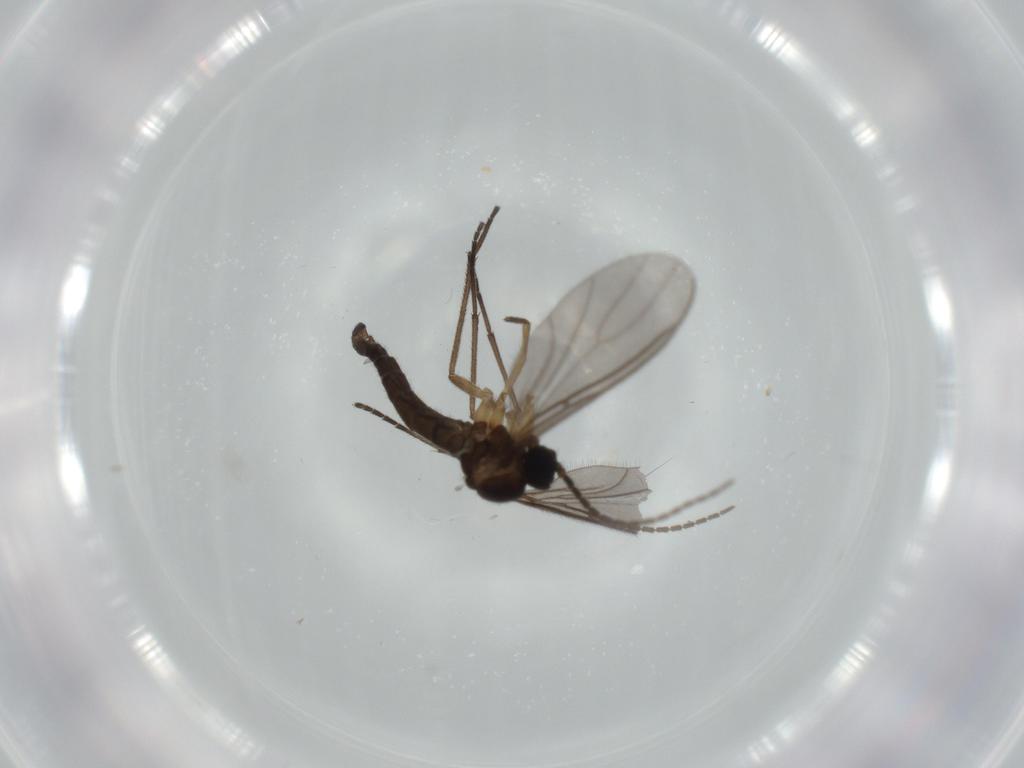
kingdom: Animalia
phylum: Arthropoda
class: Insecta
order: Diptera
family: Sciaridae
